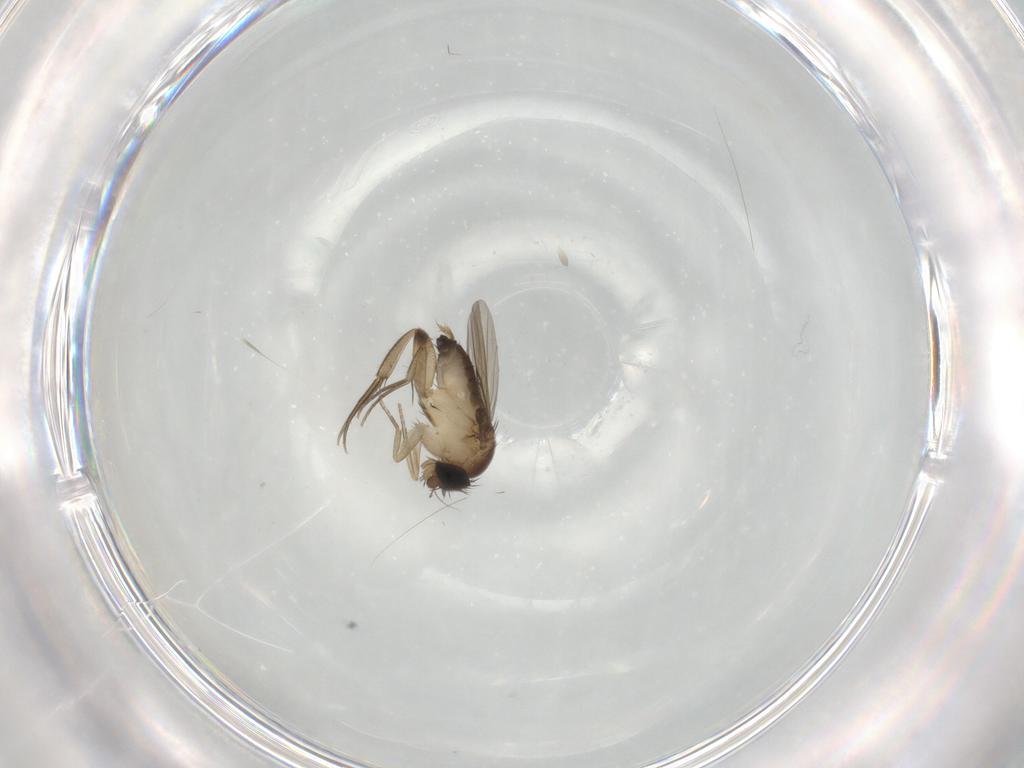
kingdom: Animalia
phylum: Arthropoda
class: Insecta
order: Diptera
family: Phoridae
